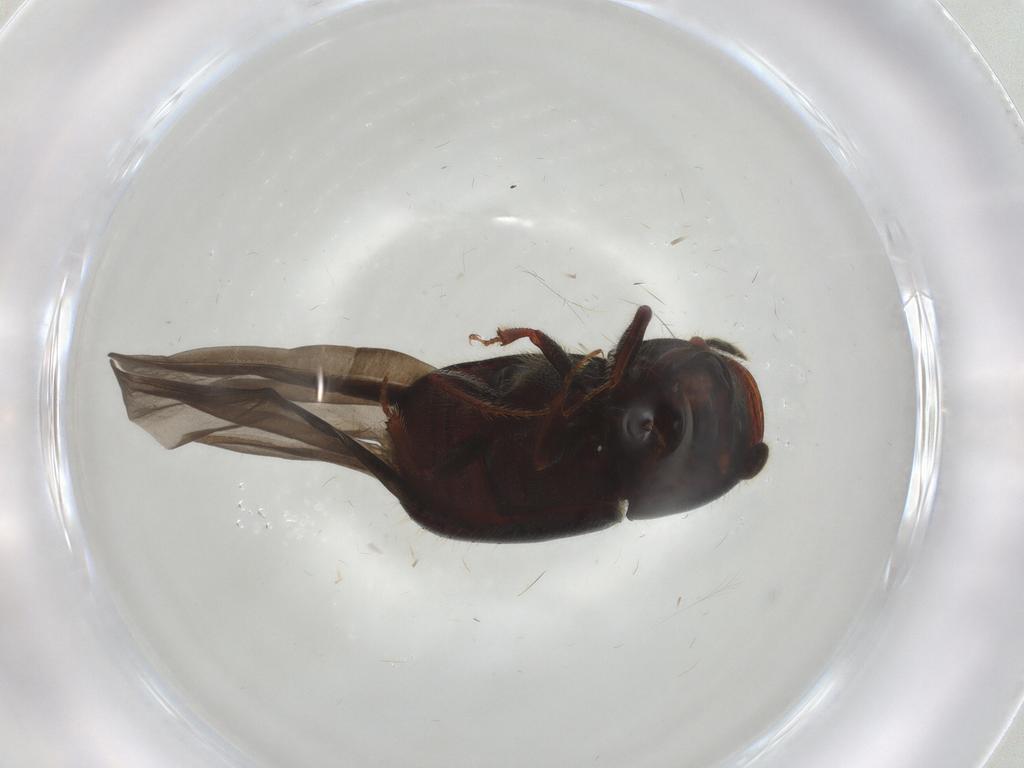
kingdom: Animalia
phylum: Arthropoda
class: Insecta
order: Coleoptera
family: Curculionidae
